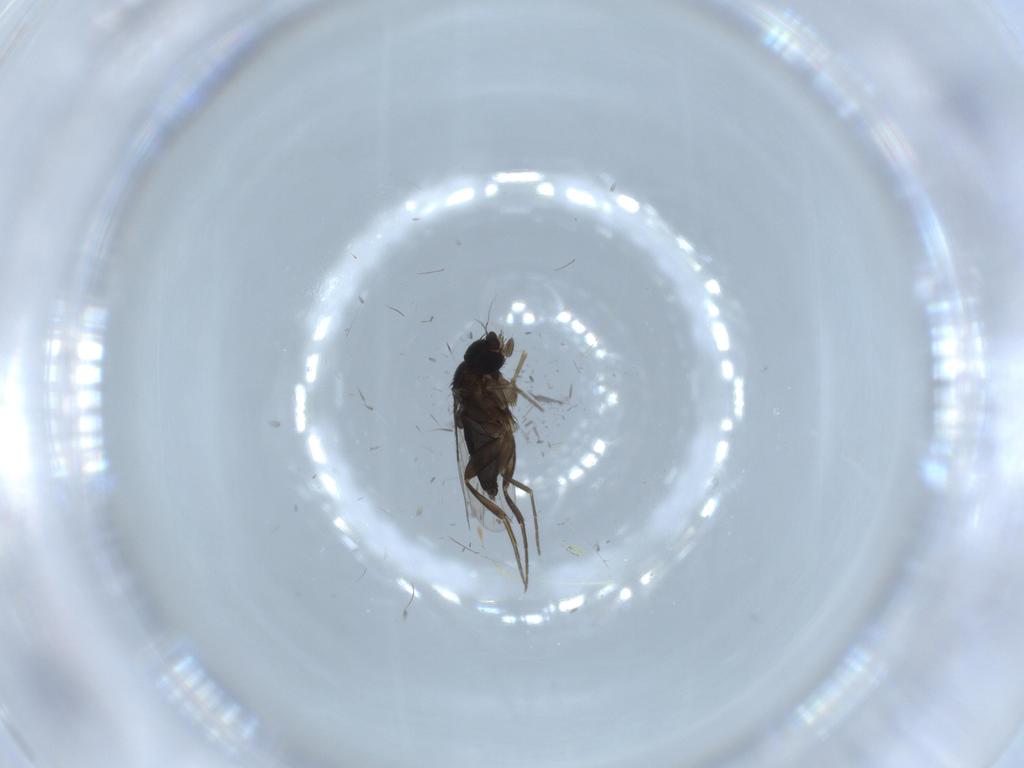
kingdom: Animalia
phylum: Arthropoda
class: Insecta
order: Diptera
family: Phoridae
